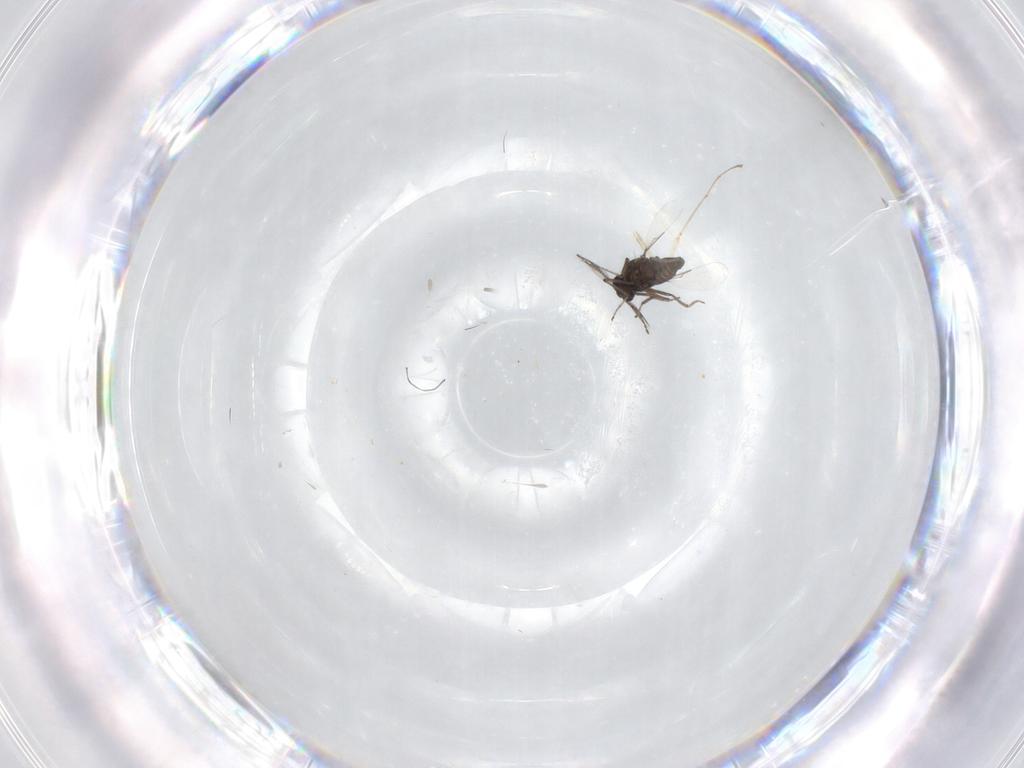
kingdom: Animalia
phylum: Arthropoda
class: Insecta
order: Diptera
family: Ceratopogonidae
